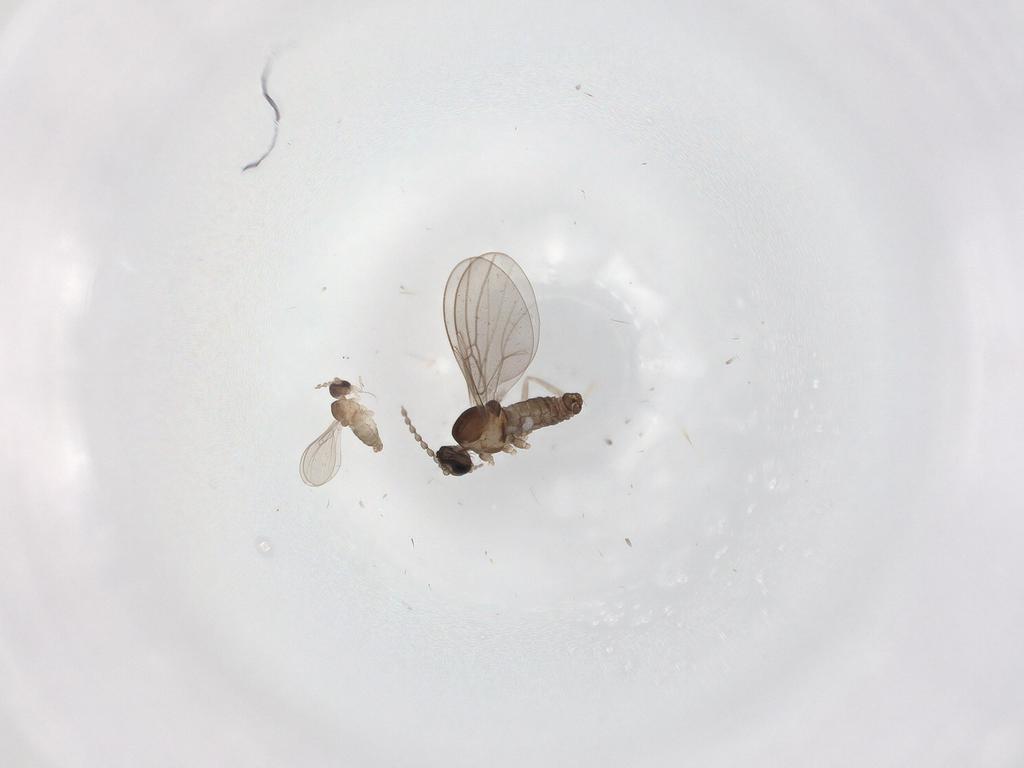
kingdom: Animalia
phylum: Arthropoda
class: Insecta
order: Diptera
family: Cecidomyiidae
